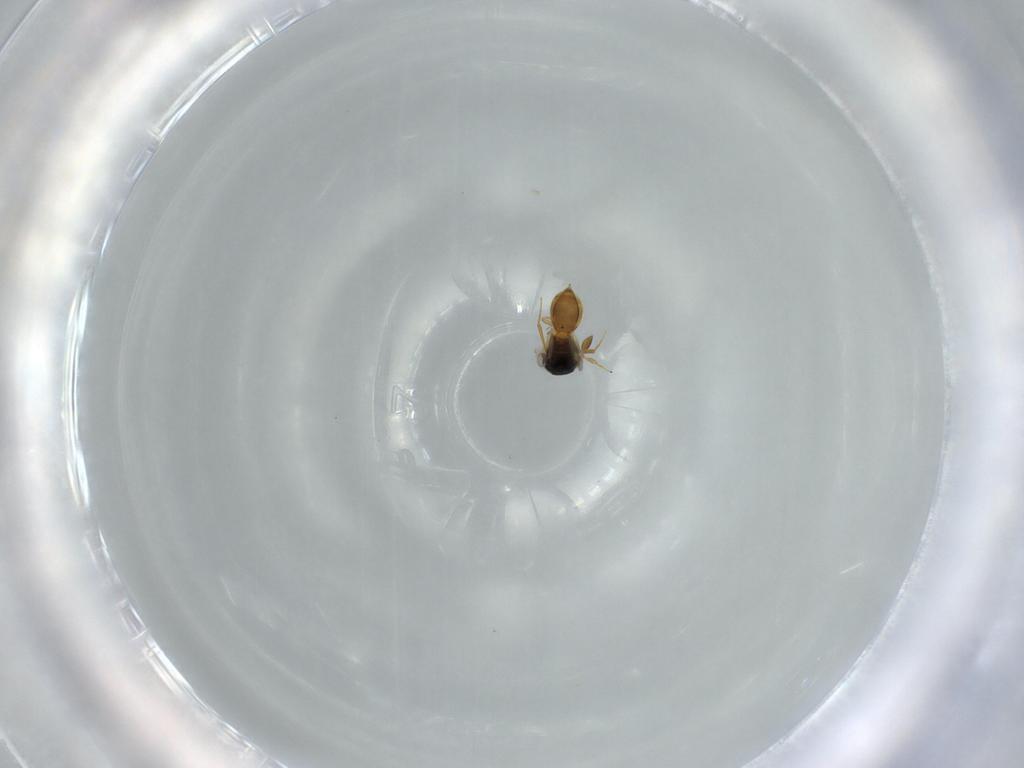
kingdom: Animalia
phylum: Arthropoda
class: Insecta
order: Hymenoptera
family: Scelionidae
